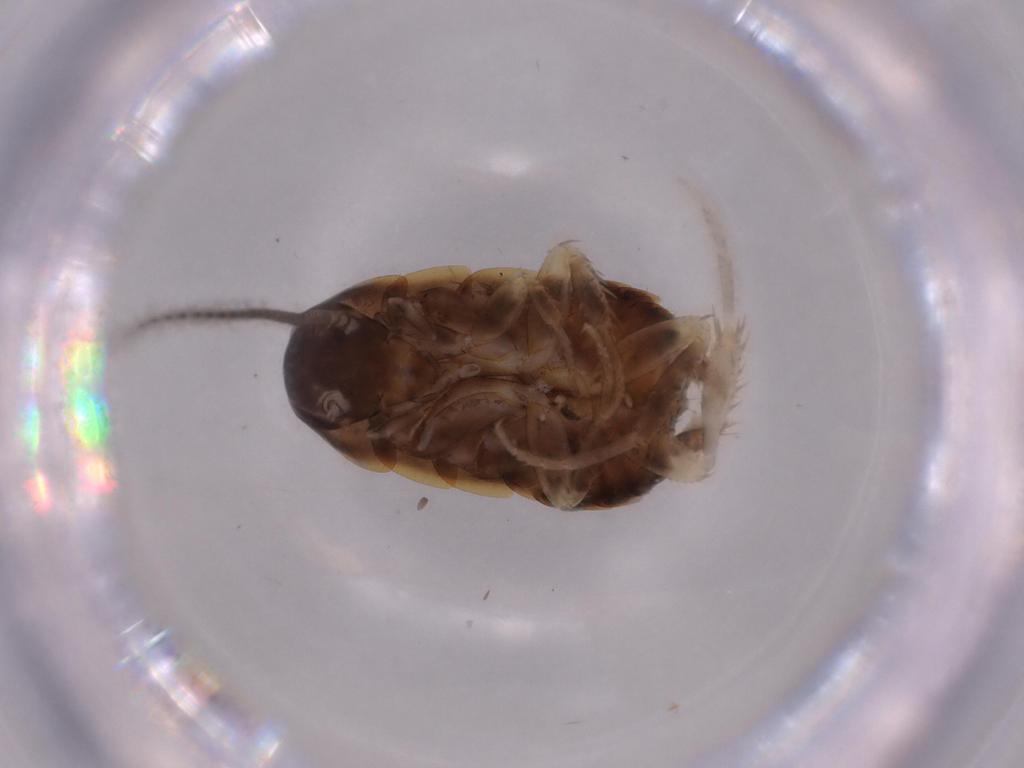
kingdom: Animalia
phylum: Arthropoda
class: Insecta
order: Blattodea
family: Blattidae
